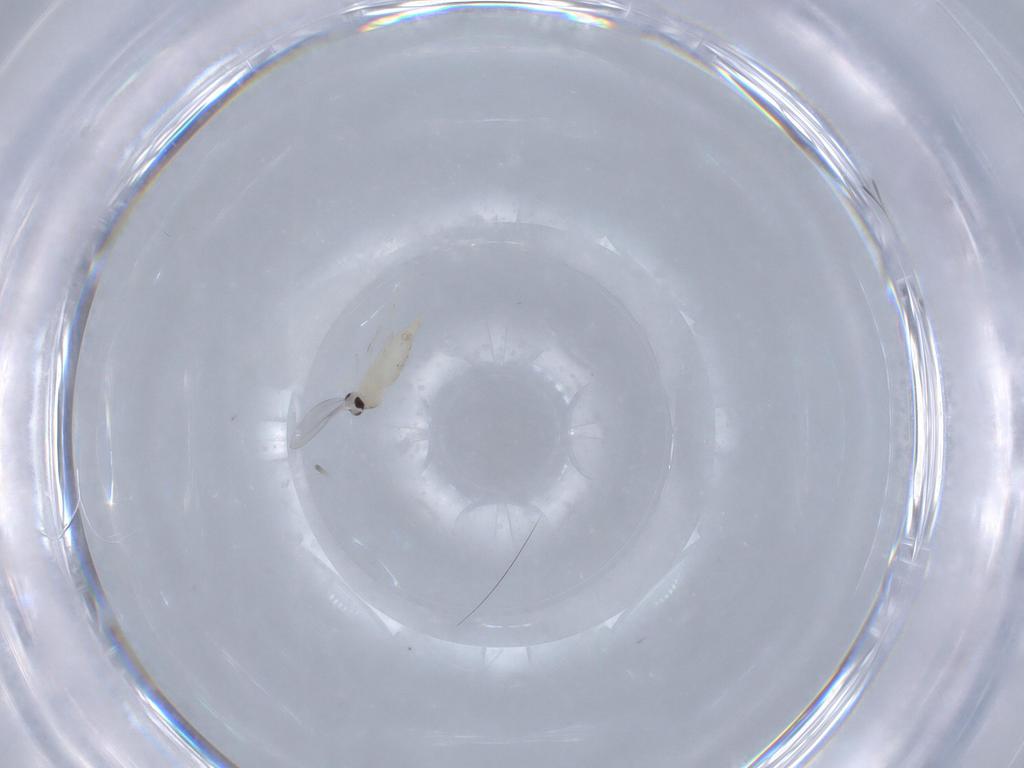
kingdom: Animalia
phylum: Arthropoda
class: Insecta
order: Diptera
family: Cecidomyiidae
